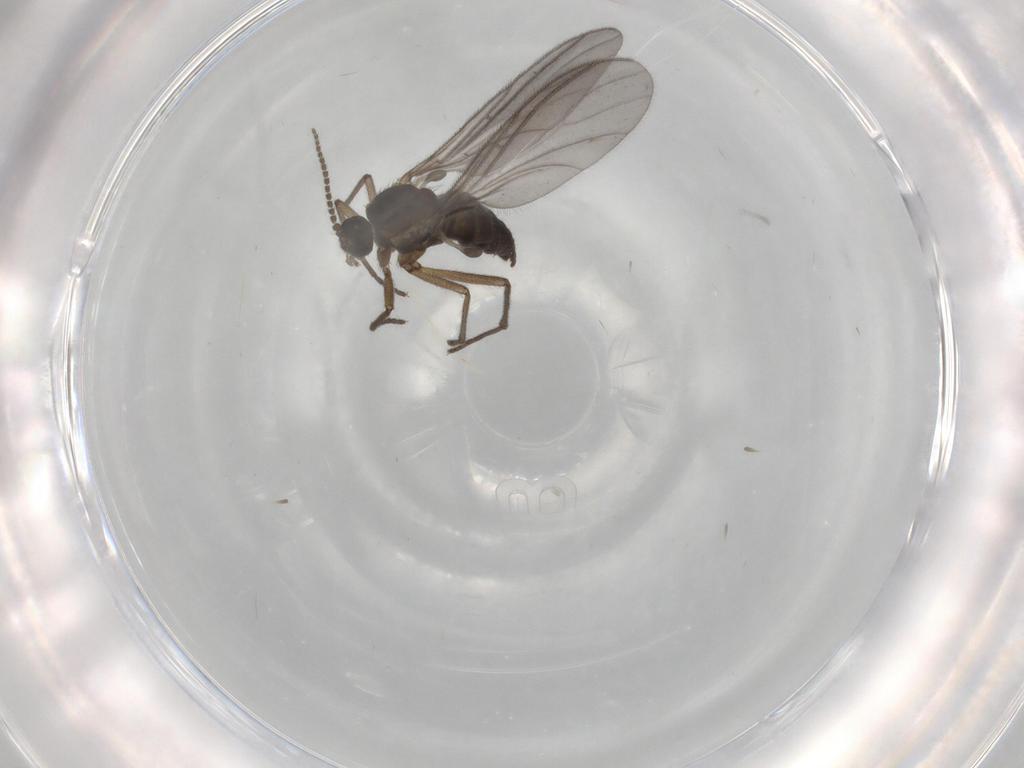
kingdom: Animalia
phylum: Arthropoda
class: Insecta
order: Diptera
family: Sciaridae
